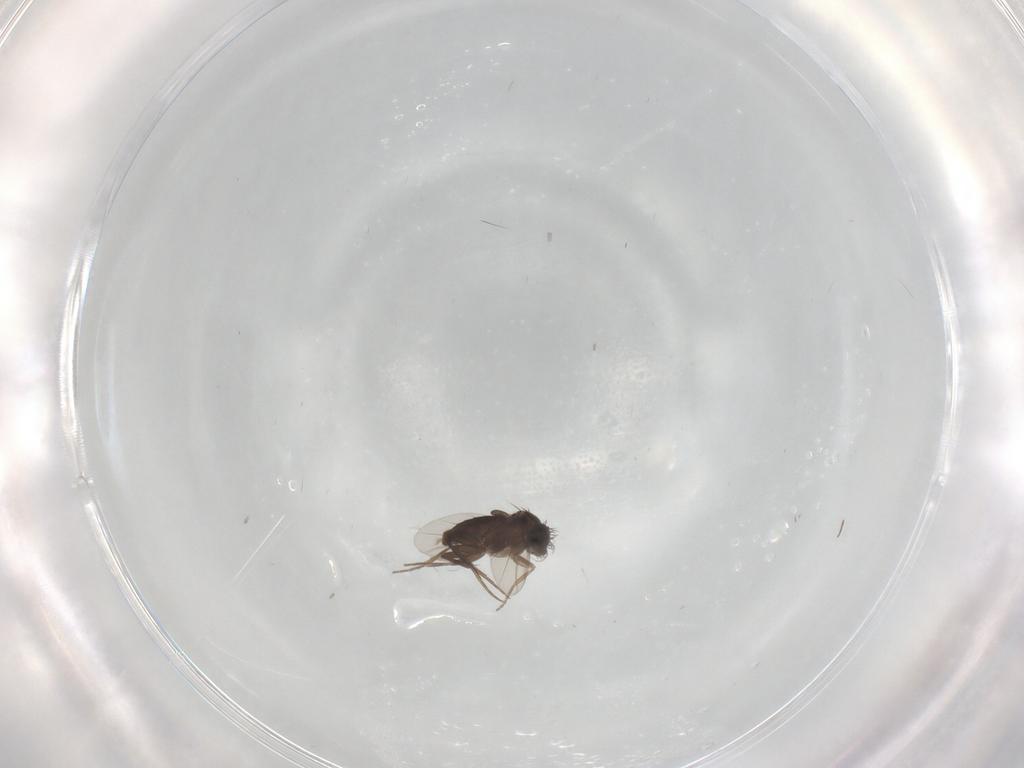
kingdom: Animalia
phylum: Arthropoda
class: Insecta
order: Diptera
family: Phoridae
